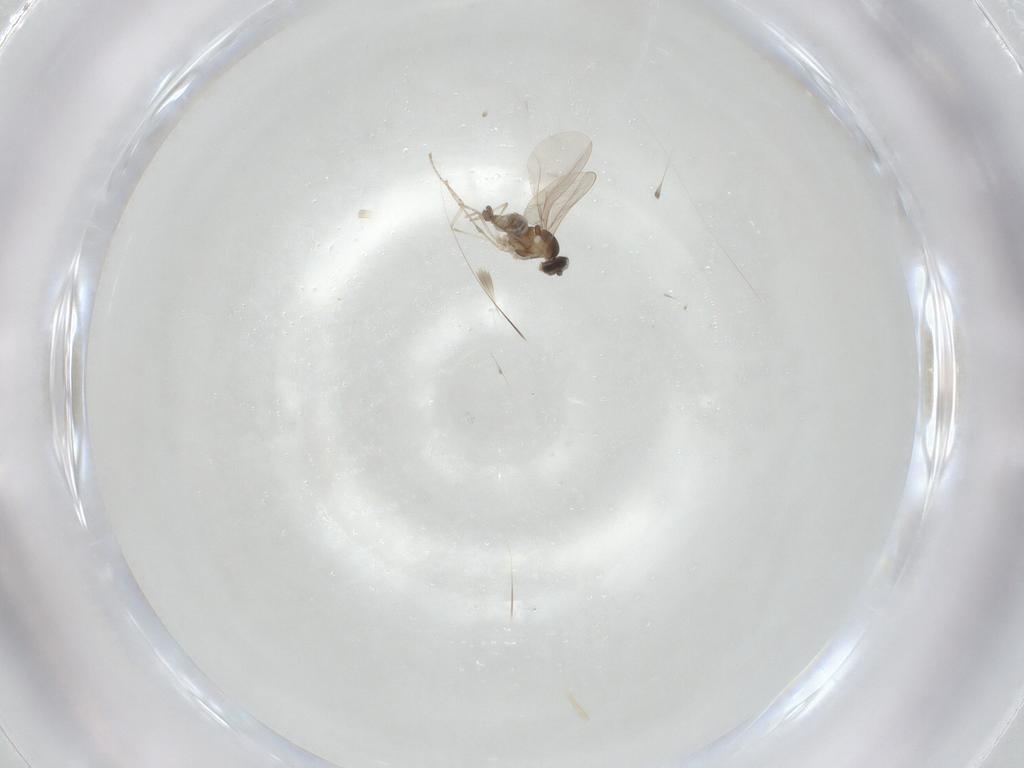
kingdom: Animalia
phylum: Arthropoda
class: Insecta
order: Diptera
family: Cecidomyiidae
